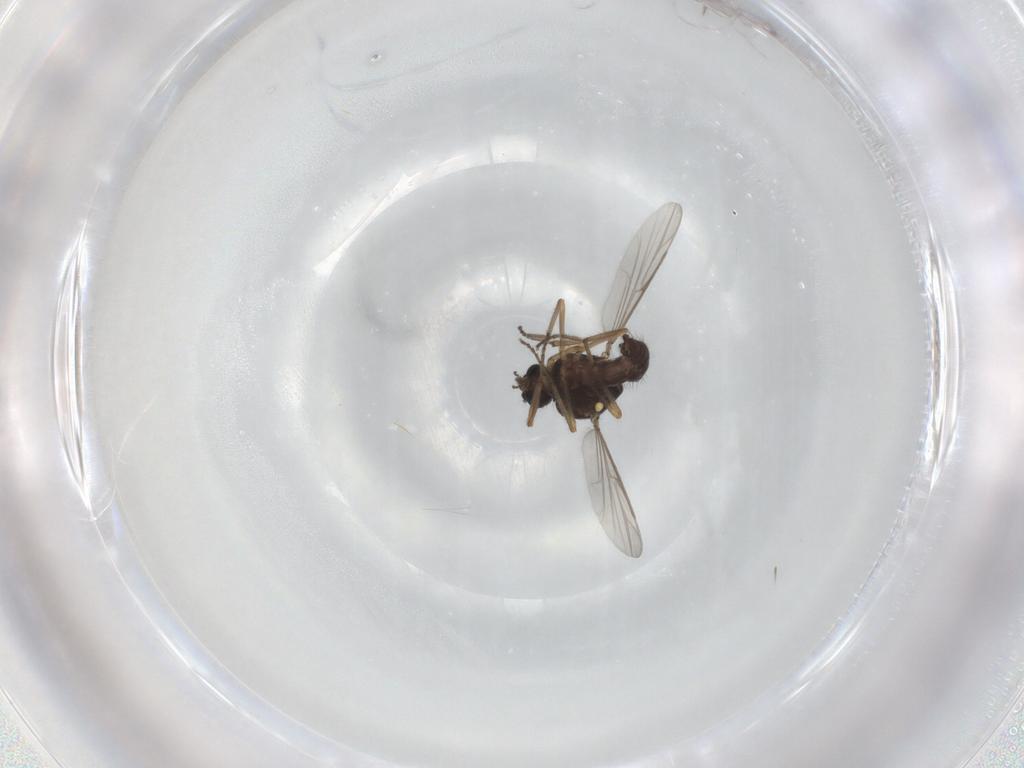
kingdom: Animalia
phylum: Arthropoda
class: Insecta
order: Diptera
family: Ceratopogonidae
